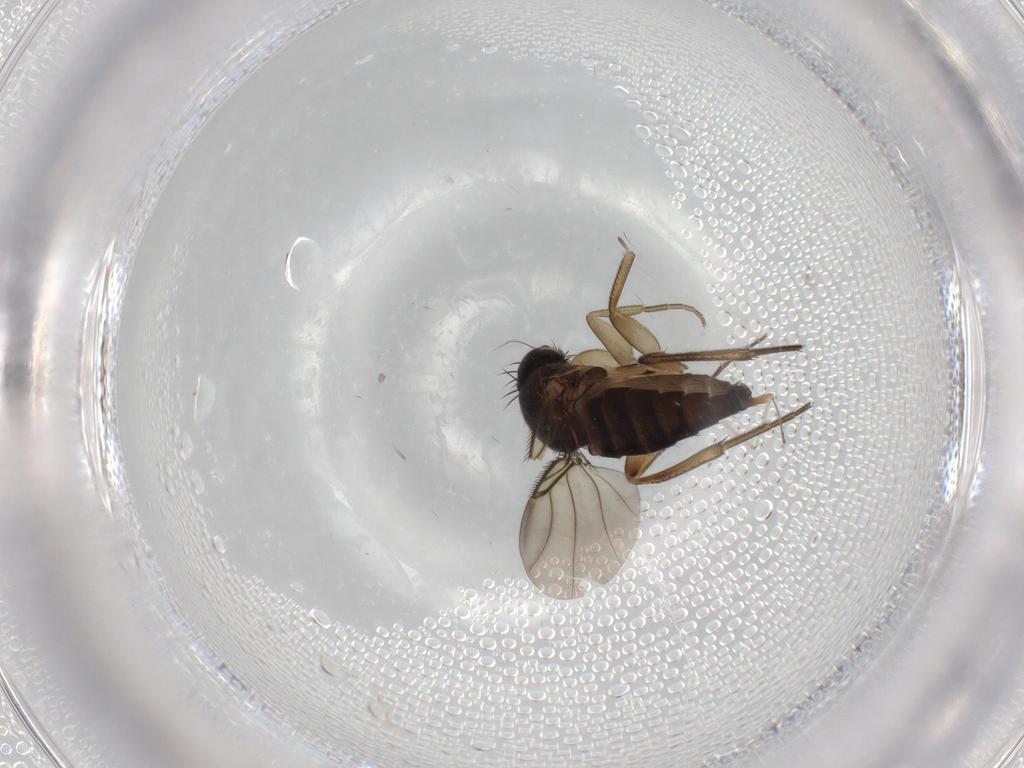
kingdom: Animalia
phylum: Arthropoda
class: Insecta
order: Diptera
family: Phoridae
